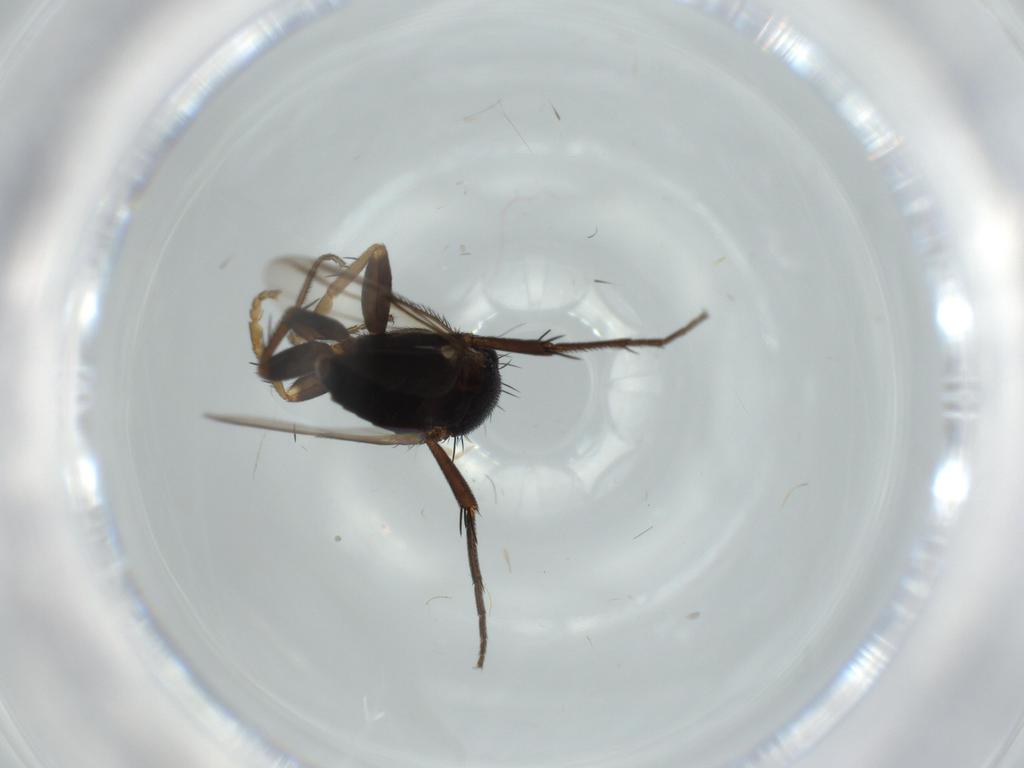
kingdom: Animalia
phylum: Arthropoda
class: Insecta
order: Diptera
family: Phoridae
